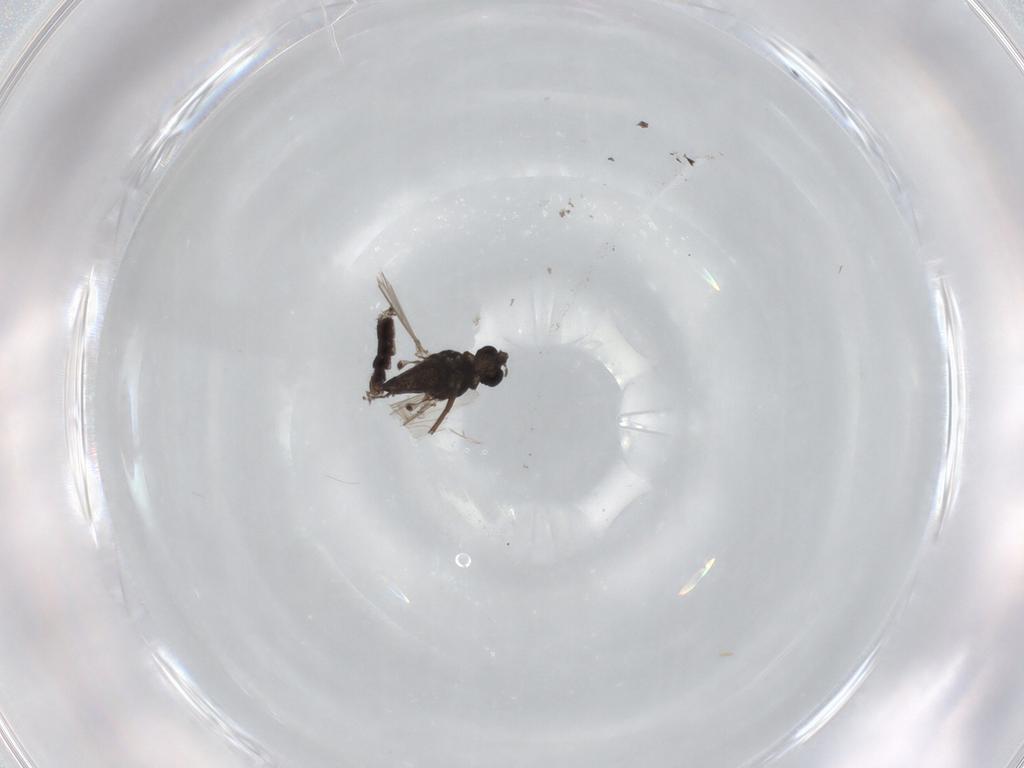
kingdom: Animalia
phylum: Arthropoda
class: Insecta
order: Diptera
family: Chironomidae
